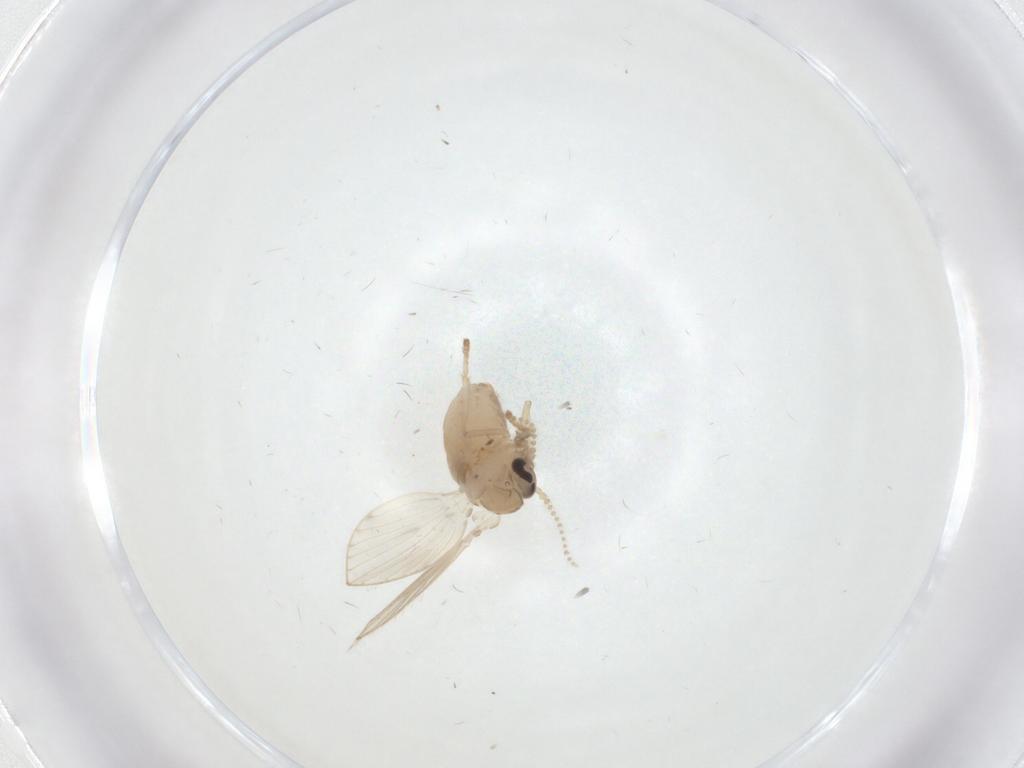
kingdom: Animalia
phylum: Arthropoda
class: Insecta
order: Diptera
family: Psychodidae
